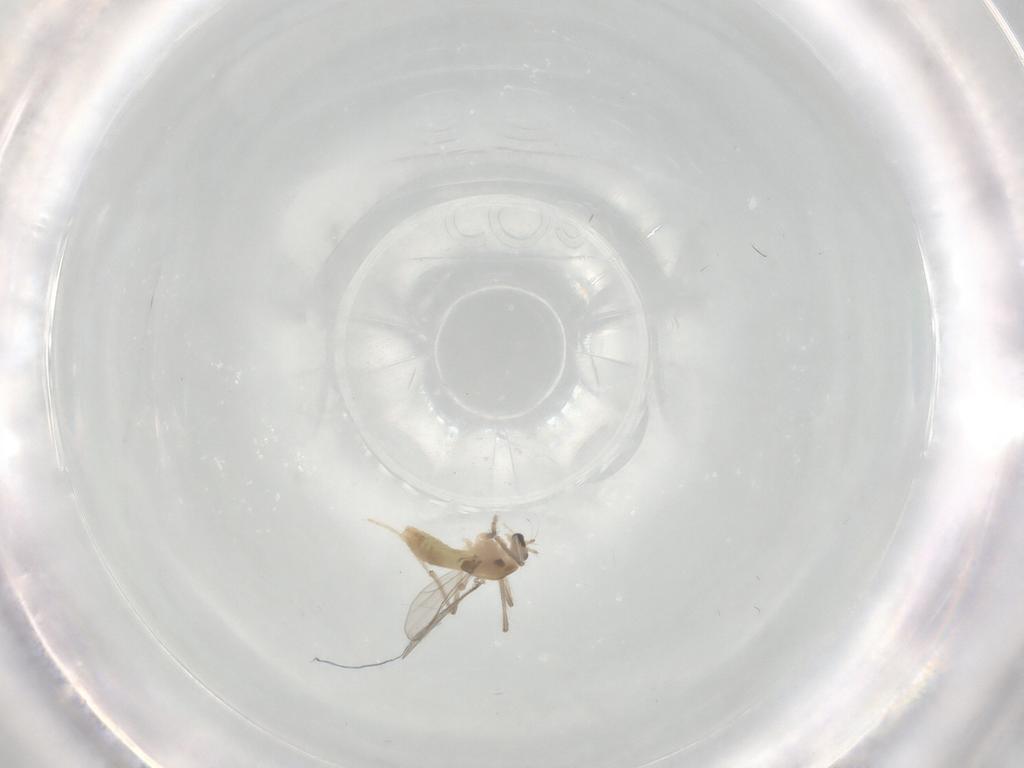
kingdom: Animalia
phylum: Arthropoda
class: Insecta
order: Diptera
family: Chironomidae
